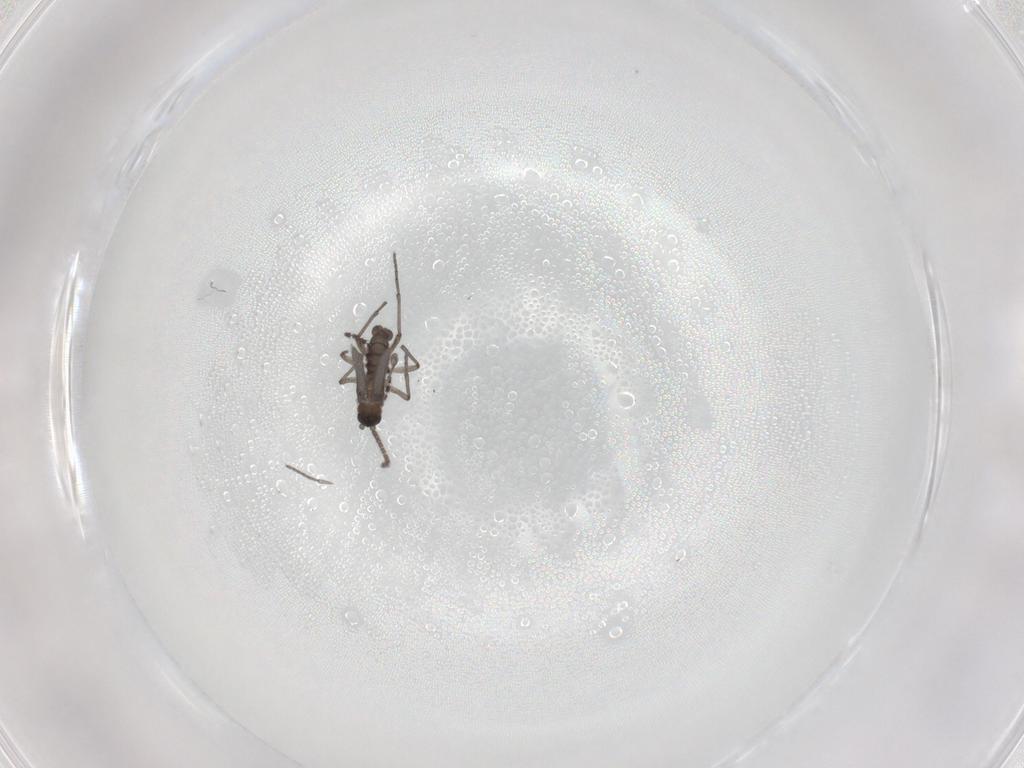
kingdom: Animalia
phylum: Arthropoda
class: Insecta
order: Diptera
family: Sciaridae
